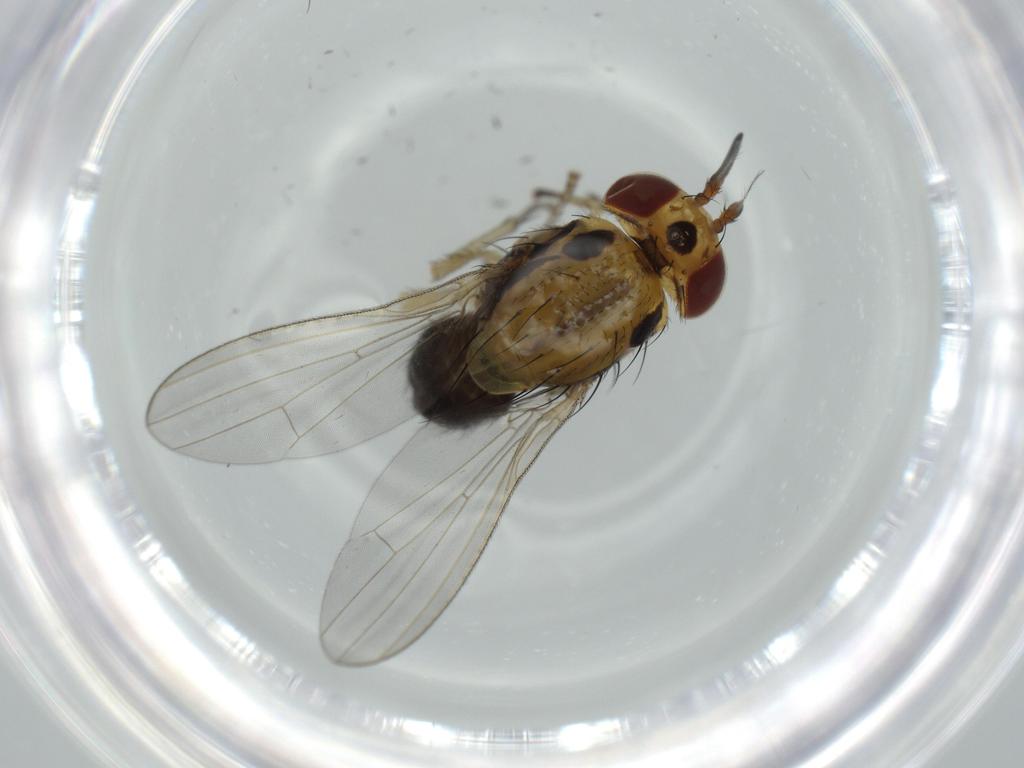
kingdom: Animalia
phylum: Arthropoda
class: Insecta
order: Diptera
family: Lauxaniidae
